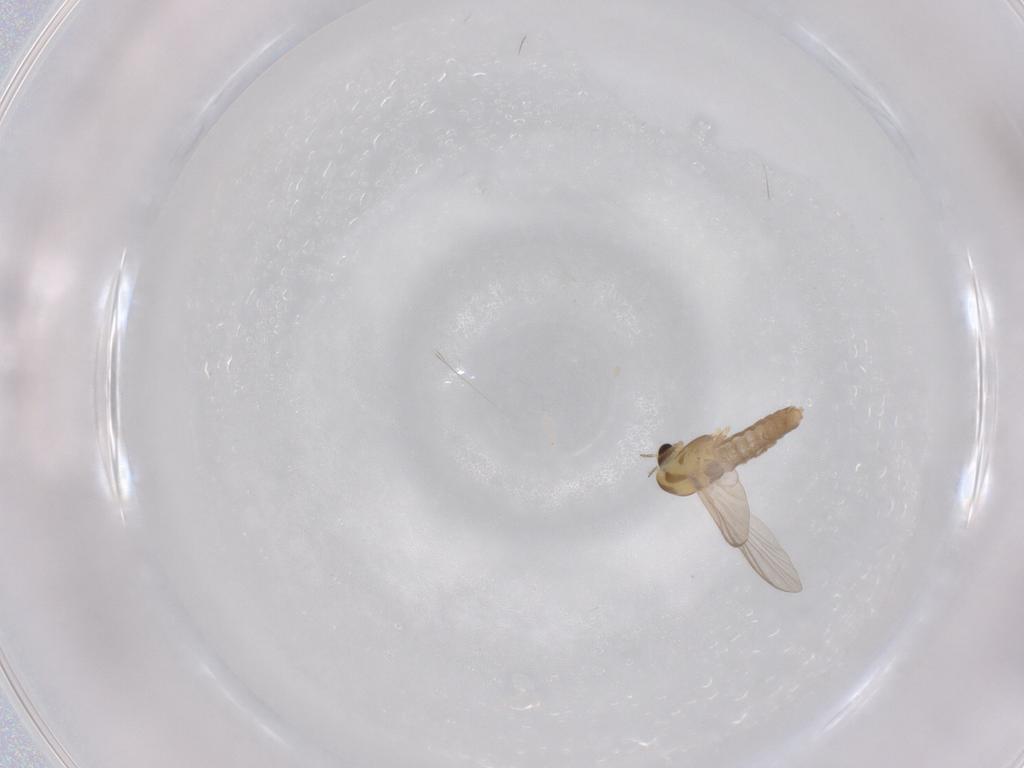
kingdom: Animalia
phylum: Arthropoda
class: Insecta
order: Diptera
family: Chironomidae
